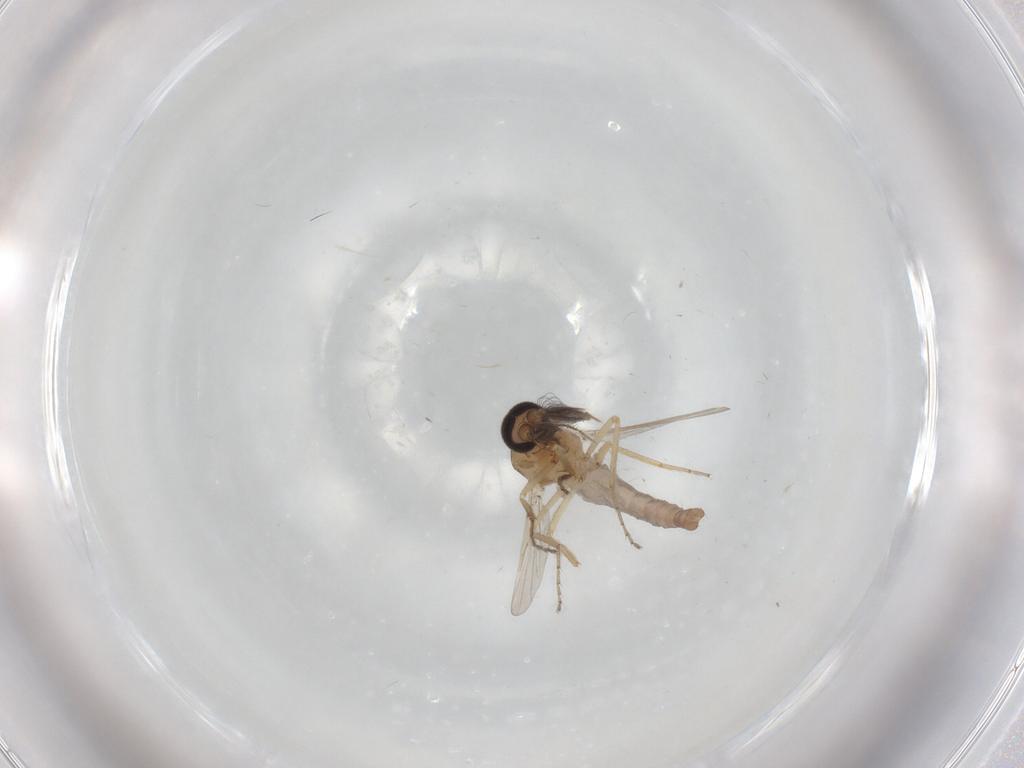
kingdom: Animalia
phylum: Arthropoda
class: Insecta
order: Diptera
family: Ceratopogonidae
